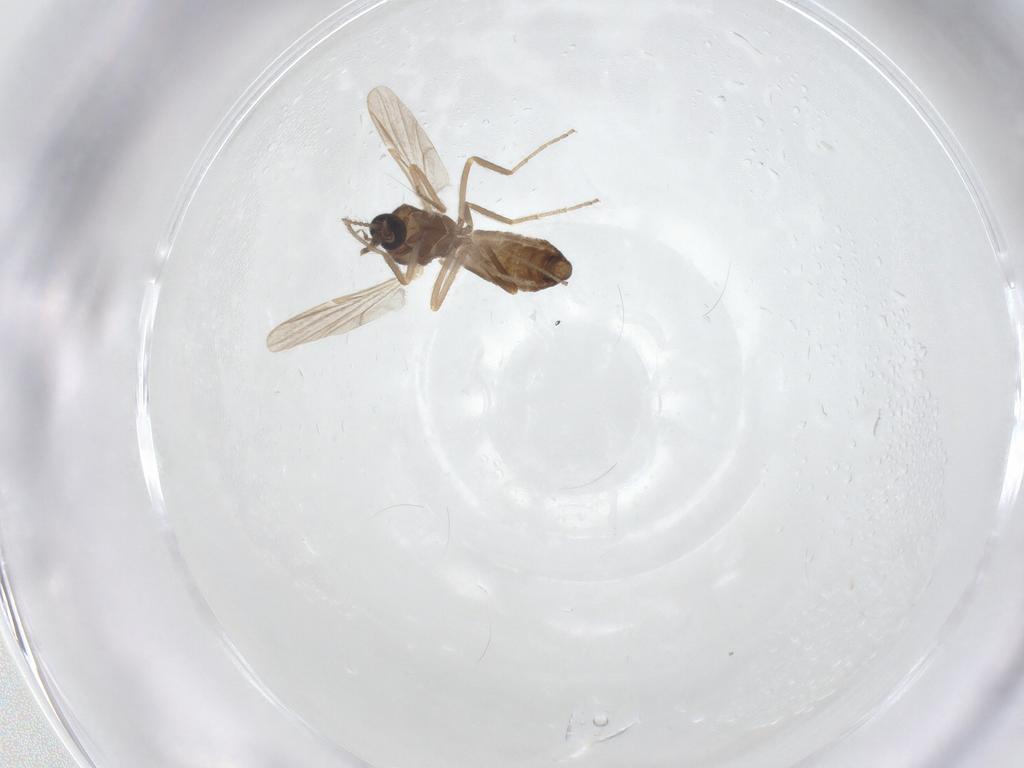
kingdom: Animalia
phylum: Arthropoda
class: Insecta
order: Diptera
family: Ceratopogonidae
